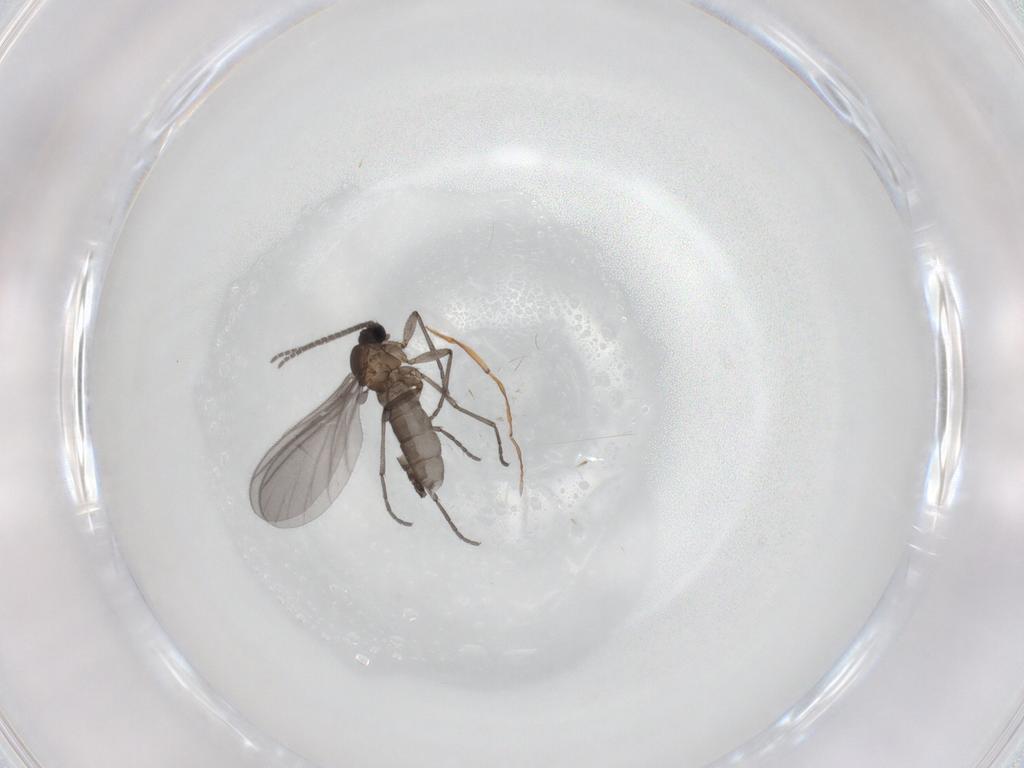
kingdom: Animalia
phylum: Arthropoda
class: Insecta
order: Diptera
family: Sciaridae
